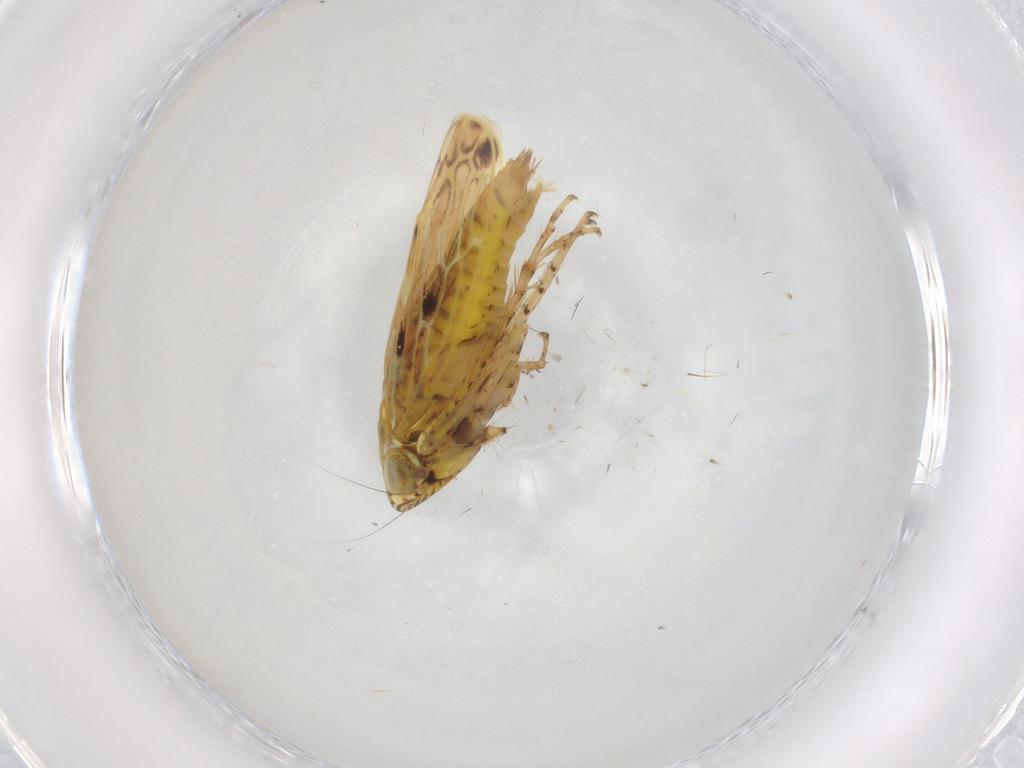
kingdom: Animalia
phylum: Arthropoda
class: Insecta
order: Hemiptera
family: Cicadellidae
